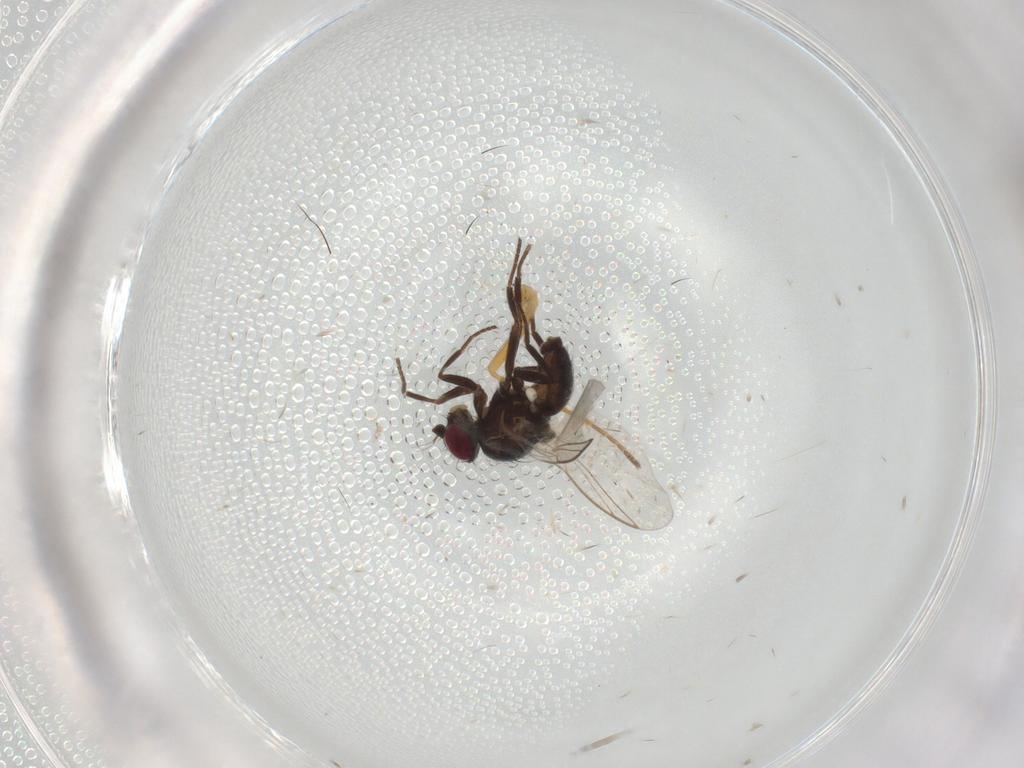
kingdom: Animalia
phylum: Arthropoda
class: Insecta
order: Diptera
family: Agromyzidae
